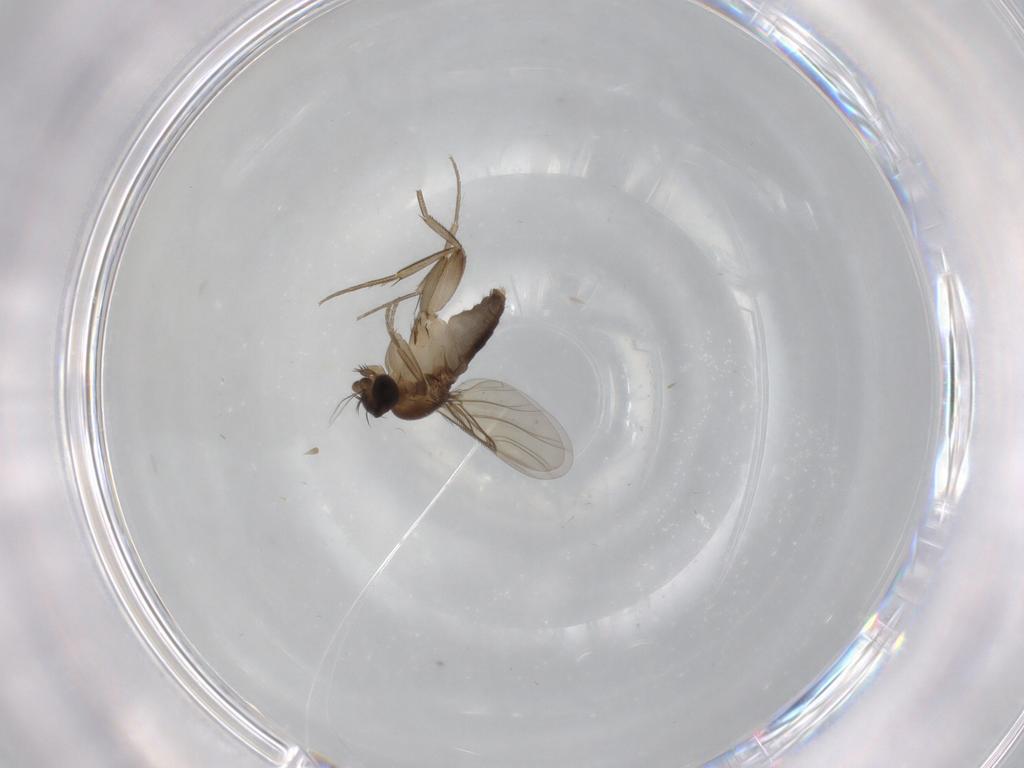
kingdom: Animalia
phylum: Arthropoda
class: Insecta
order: Diptera
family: Phoridae
